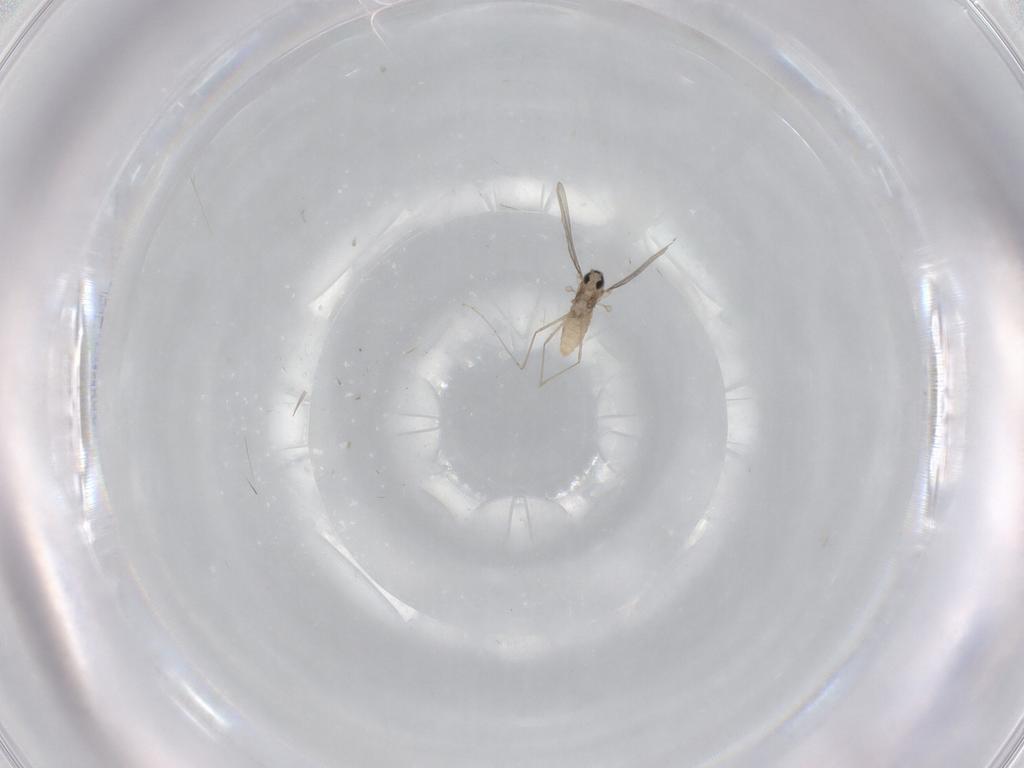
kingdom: Animalia
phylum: Arthropoda
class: Insecta
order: Diptera
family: Cecidomyiidae
